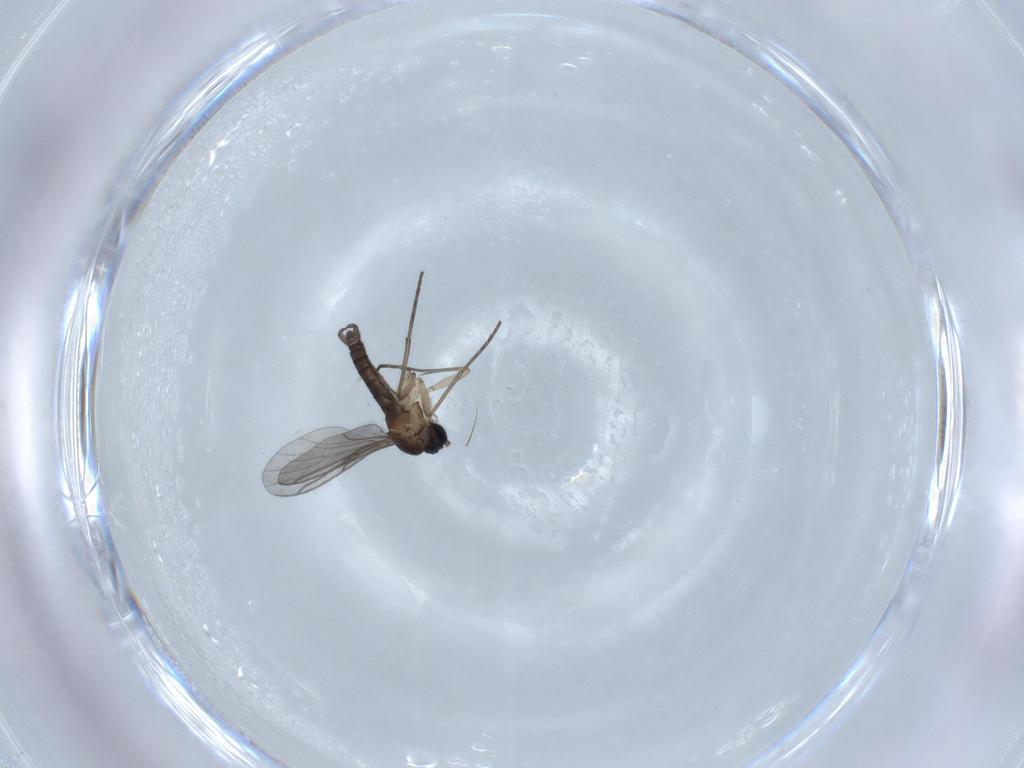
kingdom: Animalia
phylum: Arthropoda
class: Insecta
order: Diptera
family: Sciaridae
